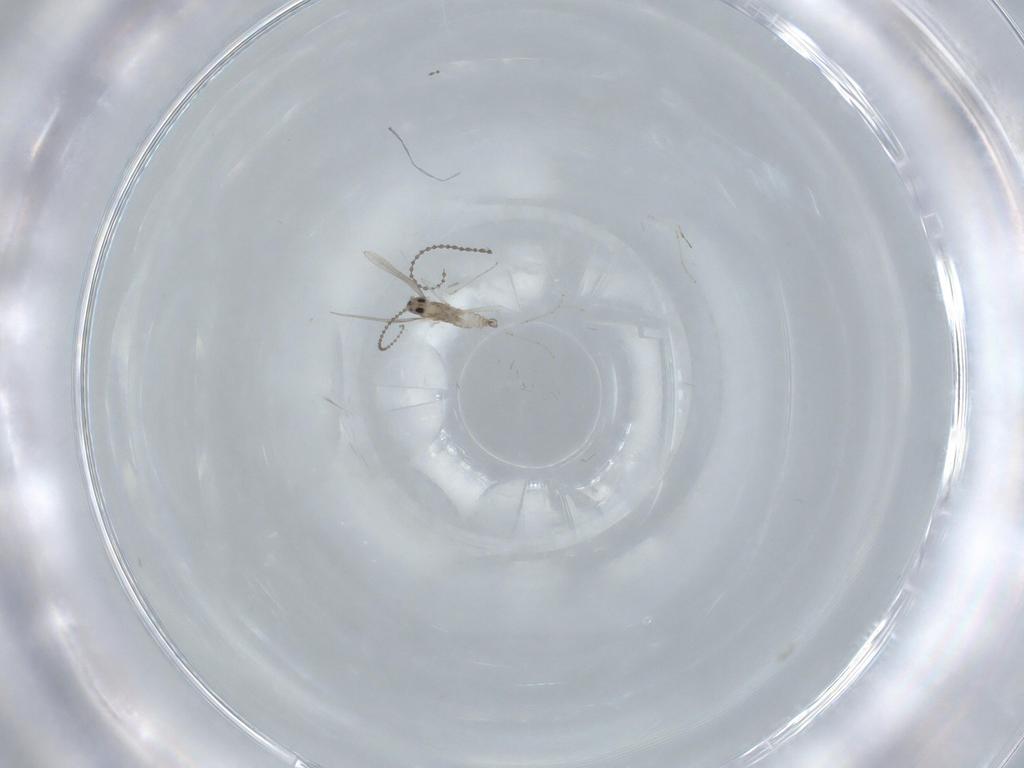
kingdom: Animalia
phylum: Arthropoda
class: Insecta
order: Diptera
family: Cecidomyiidae
